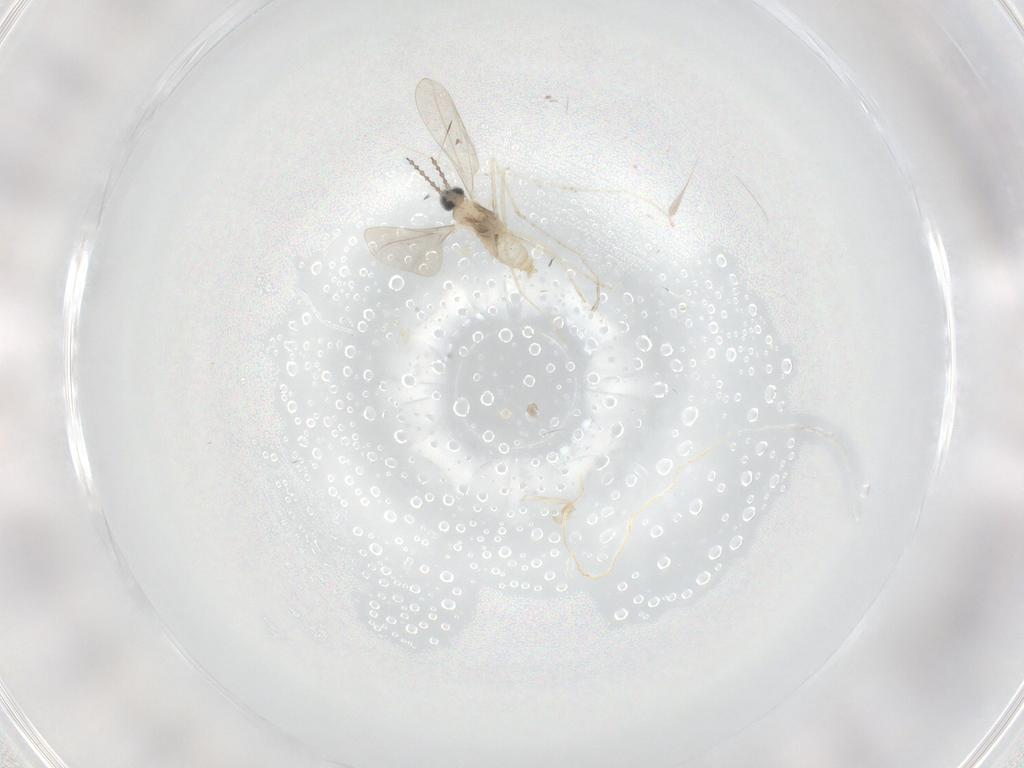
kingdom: Animalia
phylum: Arthropoda
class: Insecta
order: Diptera
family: Cecidomyiidae
